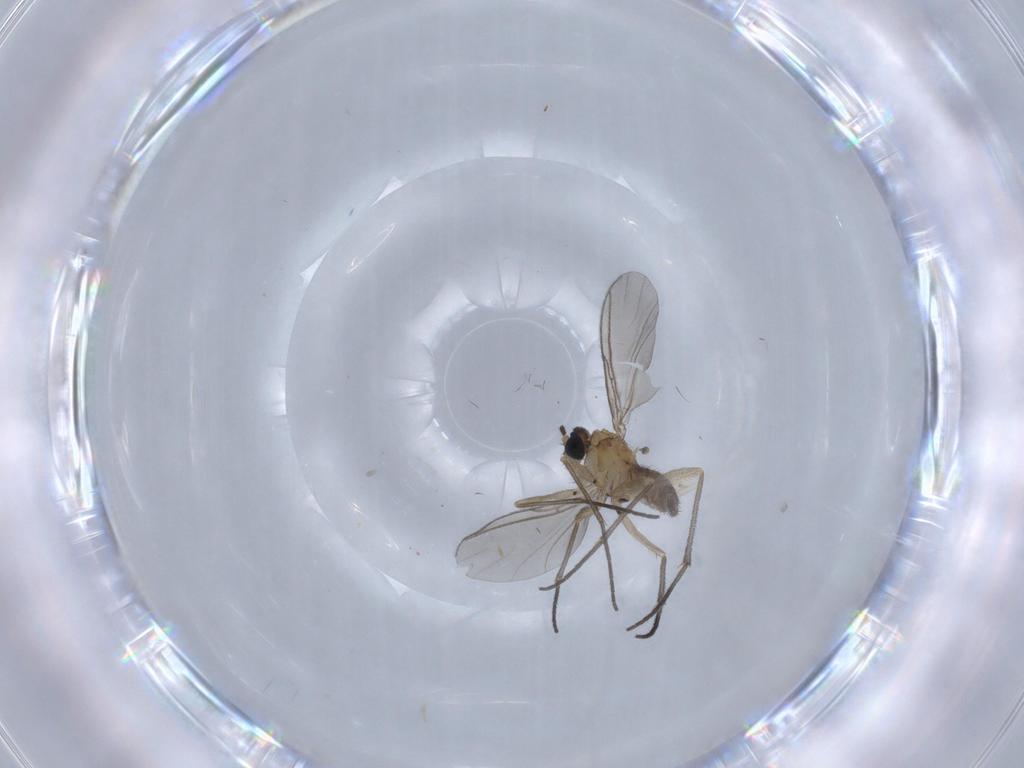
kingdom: Animalia
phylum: Arthropoda
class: Insecta
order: Diptera
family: Sciaridae
